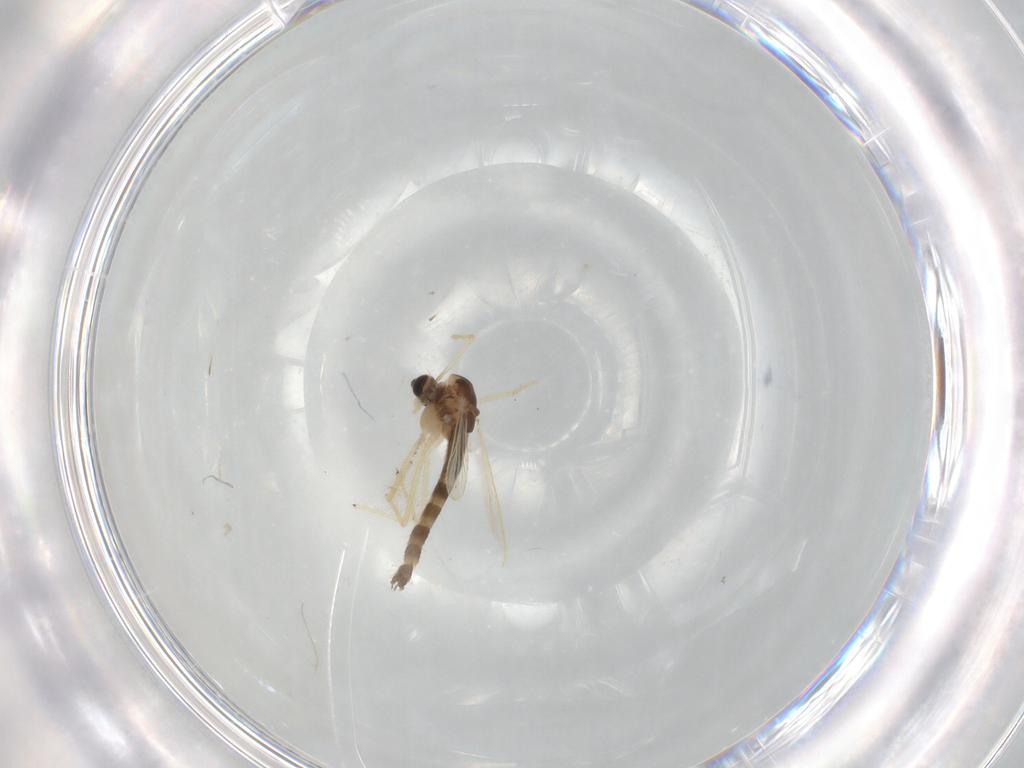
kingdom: Animalia
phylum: Arthropoda
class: Insecta
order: Diptera
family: Chironomidae
